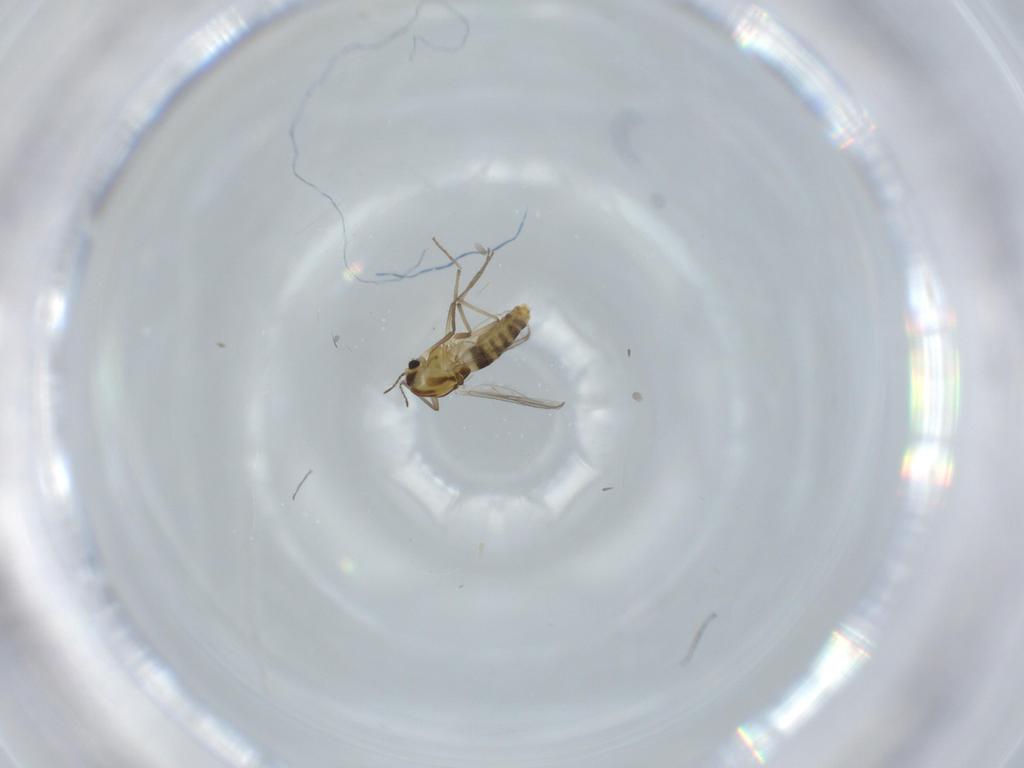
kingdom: Animalia
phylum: Arthropoda
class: Insecta
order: Diptera
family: Chironomidae
